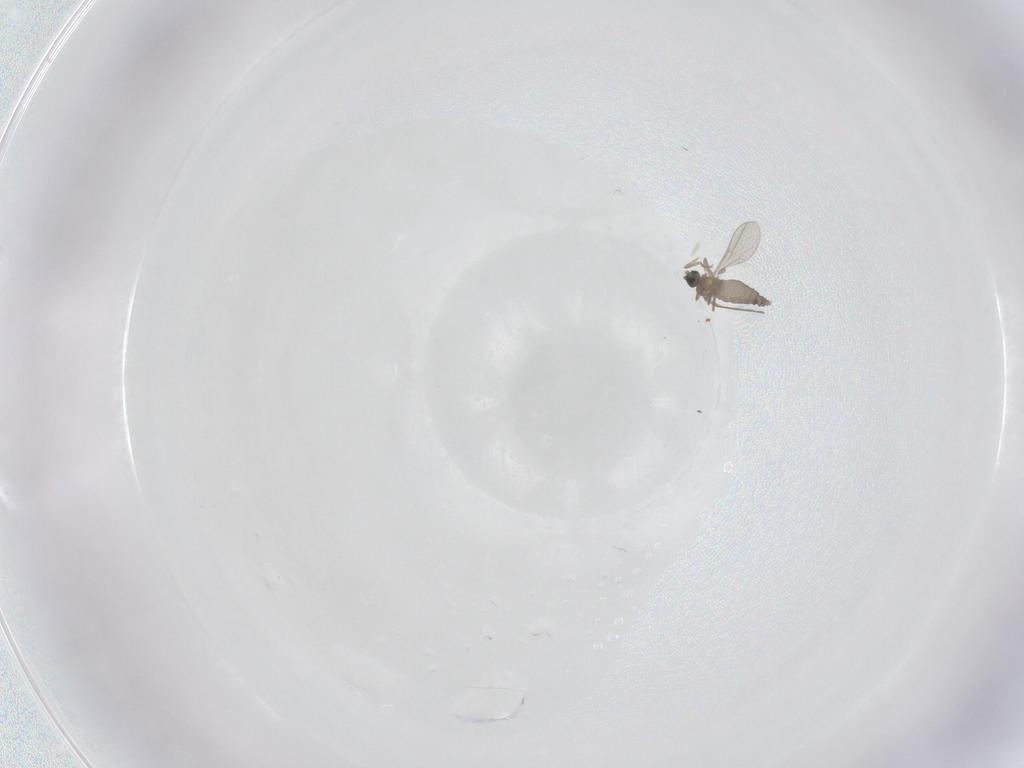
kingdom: Animalia
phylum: Arthropoda
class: Insecta
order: Diptera
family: Cecidomyiidae
